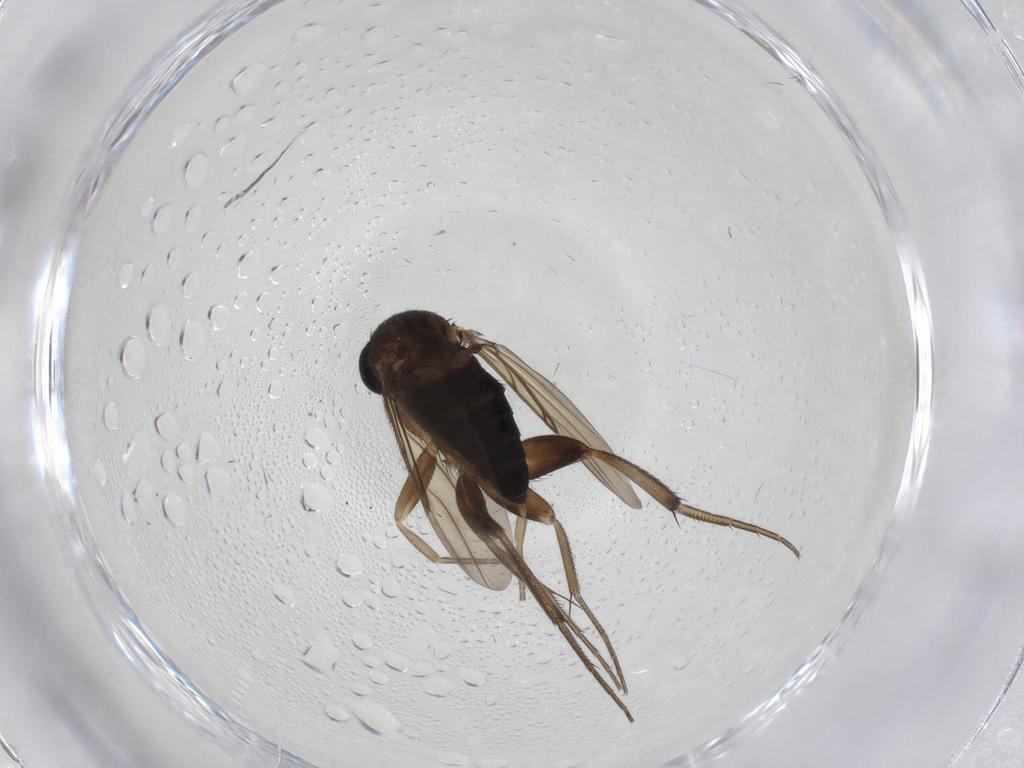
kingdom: Animalia
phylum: Arthropoda
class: Insecta
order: Diptera
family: Phoridae
